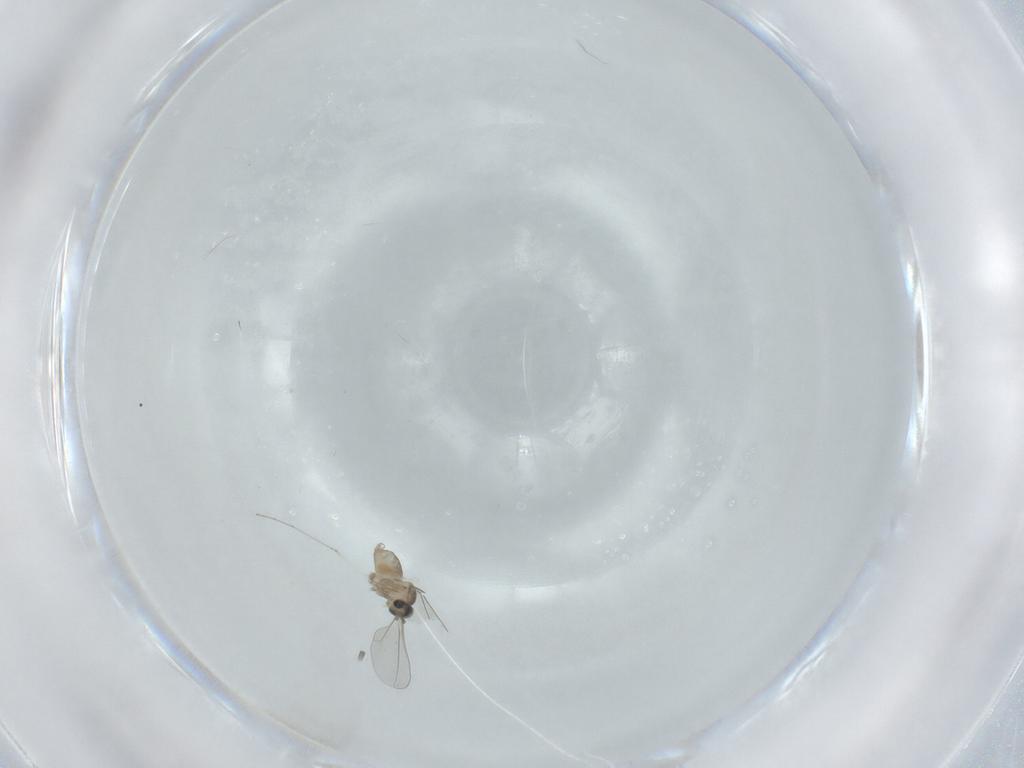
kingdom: Animalia
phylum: Arthropoda
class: Insecta
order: Diptera
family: Cecidomyiidae
